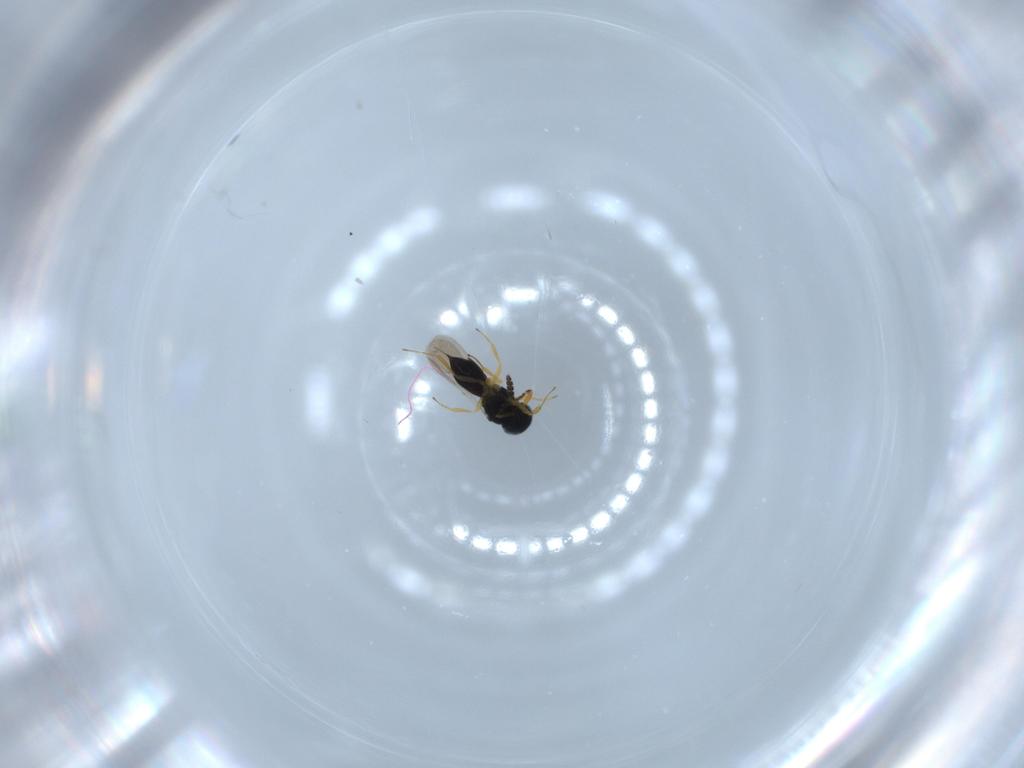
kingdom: Animalia
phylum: Arthropoda
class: Insecta
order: Hymenoptera
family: Scelionidae
